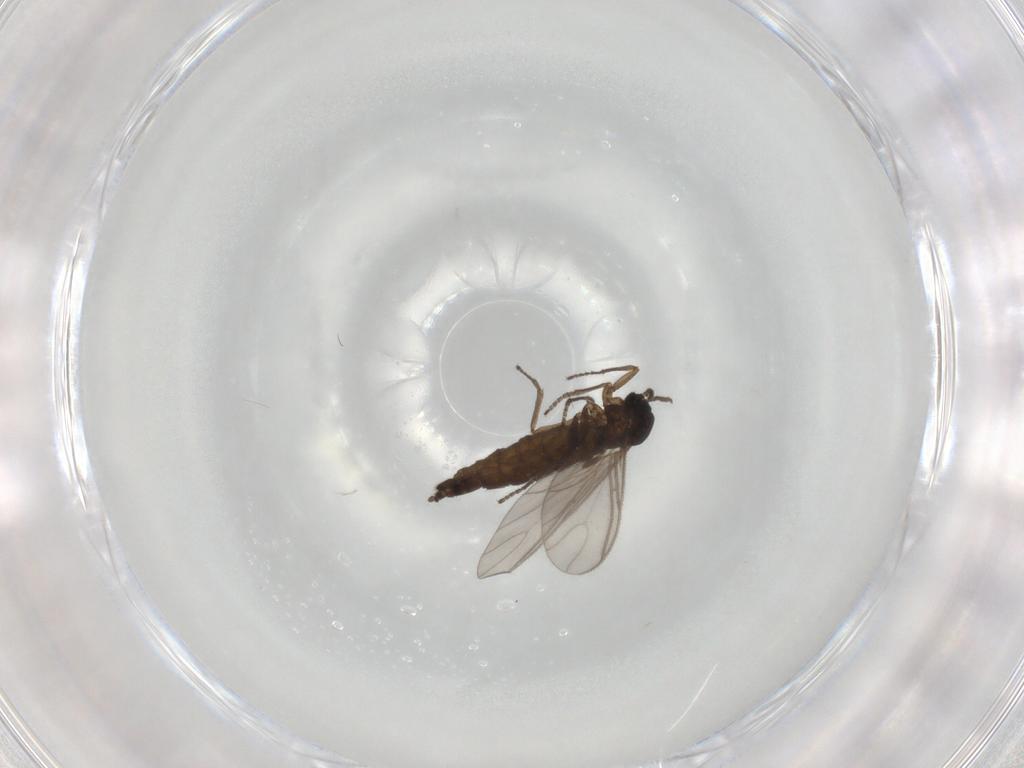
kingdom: Animalia
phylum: Arthropoda
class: Insecta
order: Diptera
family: Sciaridae
